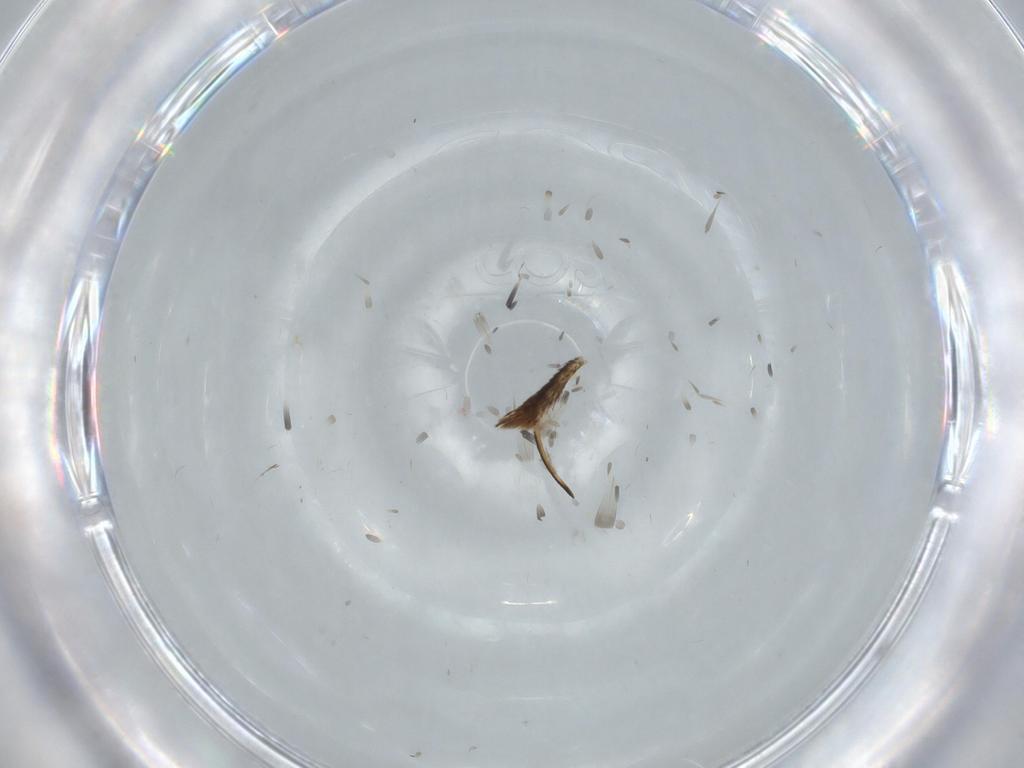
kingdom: Animalia
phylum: Arthropoda
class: Insecta
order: Diptera
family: Ceratopogonidae
